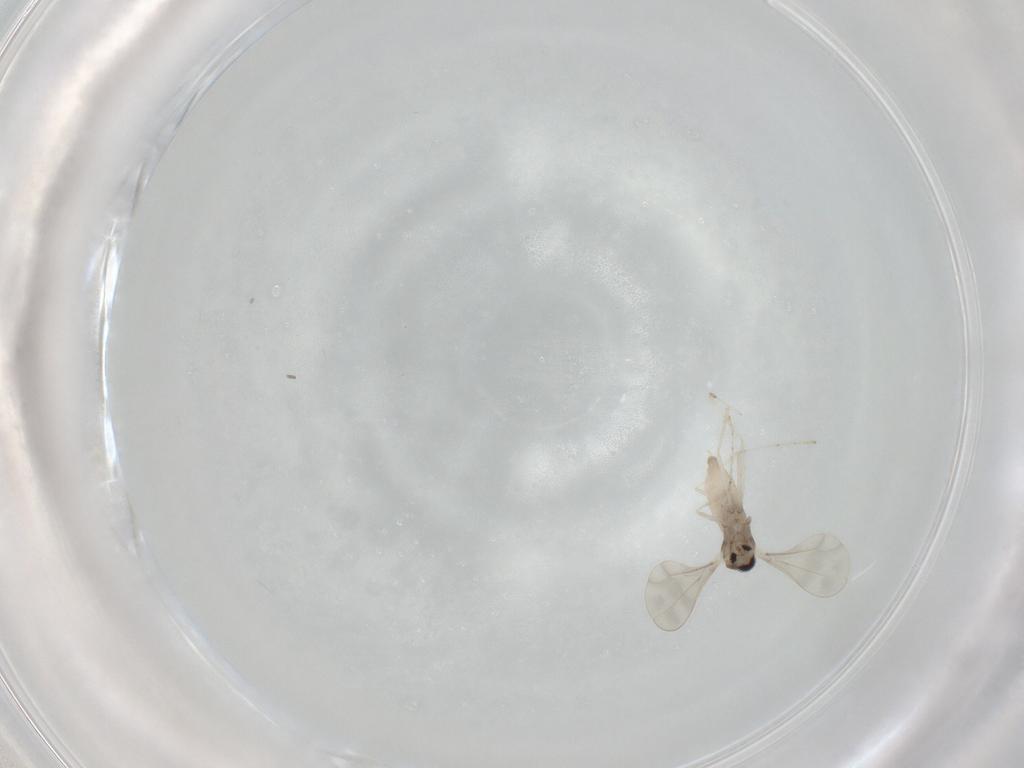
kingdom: Animalia
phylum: Arthropoda
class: Insecta
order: Diptera
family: Cecidomyiidae
